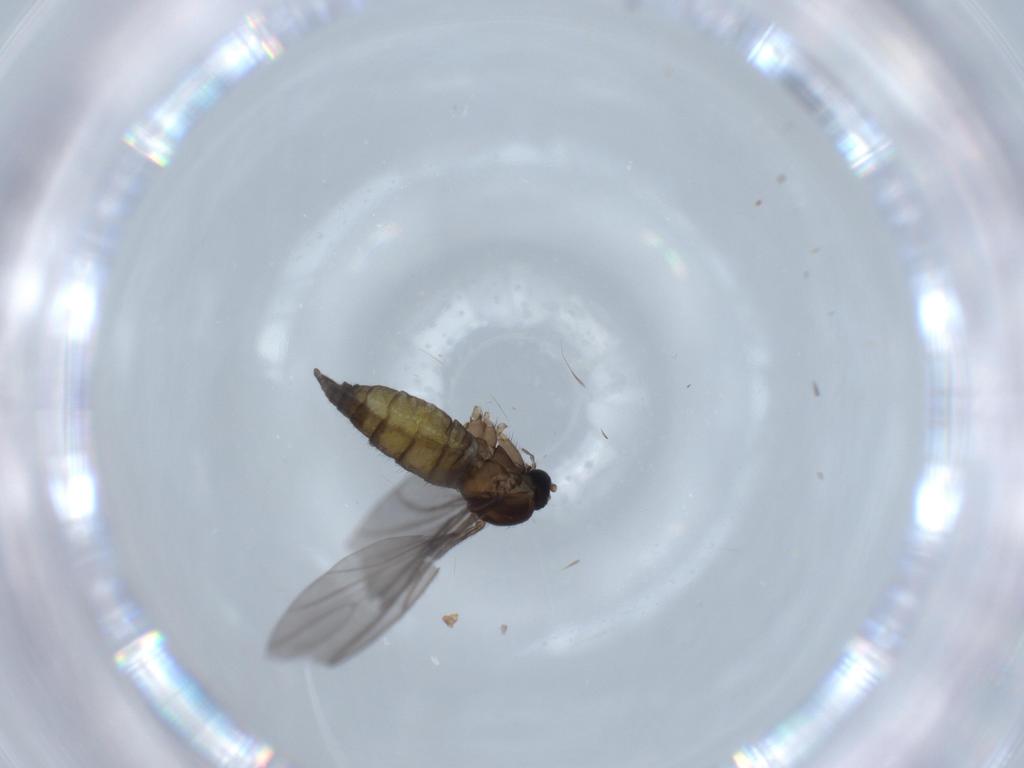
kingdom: Animalia
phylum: Arthropoda
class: Insecta
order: Diptera
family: Sciaridae
